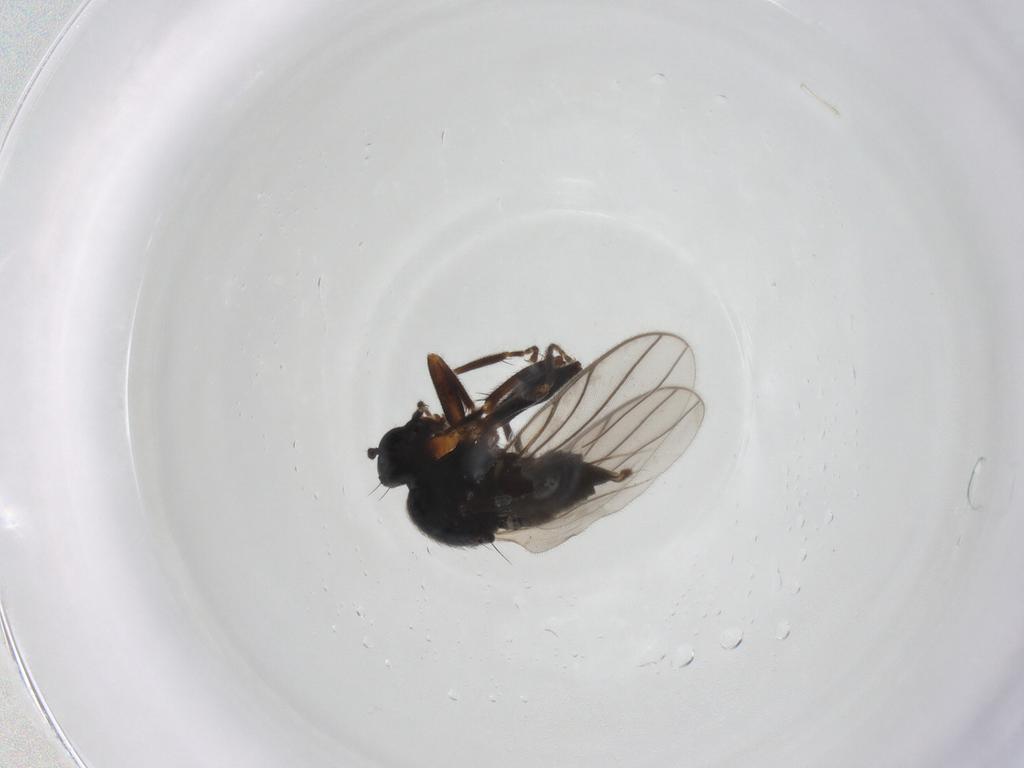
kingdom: Animalia
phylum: Arthropoda
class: Insecta
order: Diptera
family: Hybotidae
